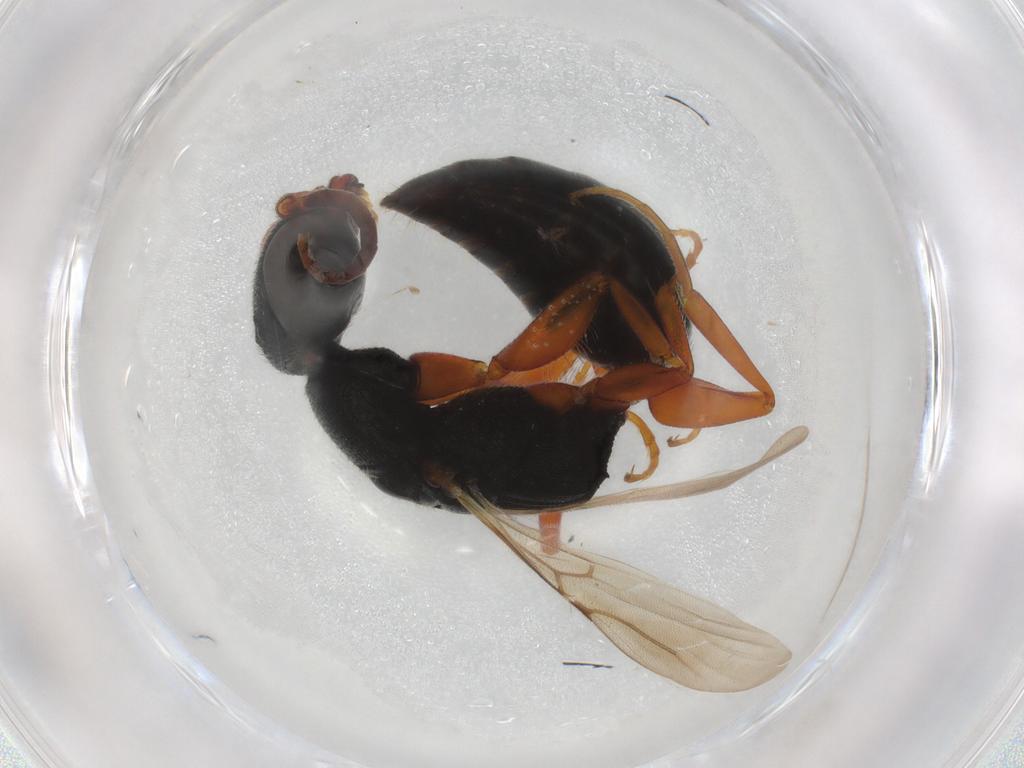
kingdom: Animalia
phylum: Arthropoda
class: Insecta
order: Hymenoptera
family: Bethylidae
